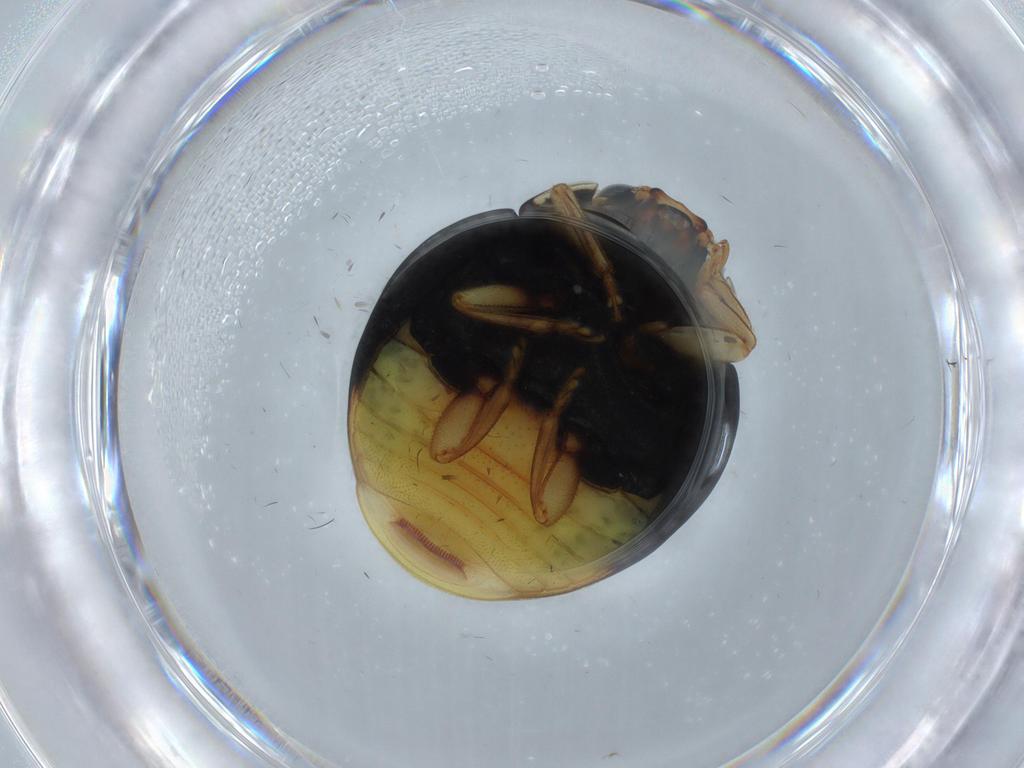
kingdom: Animalia
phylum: Arthropoda
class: Insecta
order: Coleoptera
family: Coccinellidae
